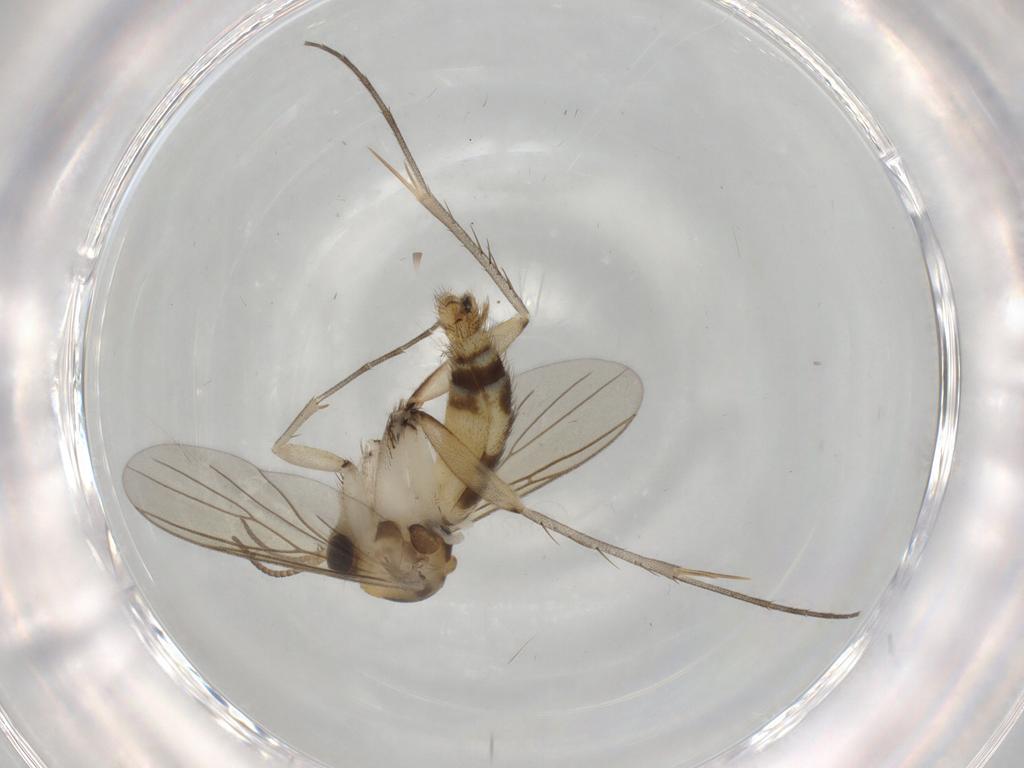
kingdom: Animalia
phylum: Arthropoda
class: Insecta
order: Diptera
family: Mycetophilidae
